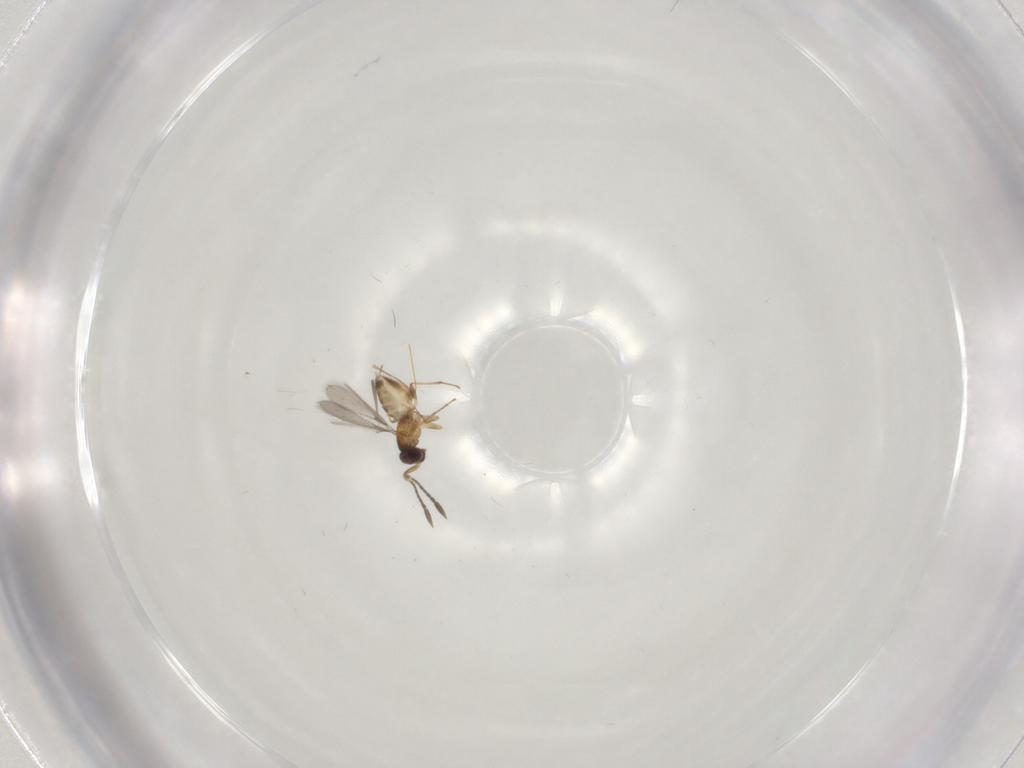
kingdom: Animalia
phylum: Arthropoda
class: Insecta
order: Hymenoptera
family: Mymaridae
